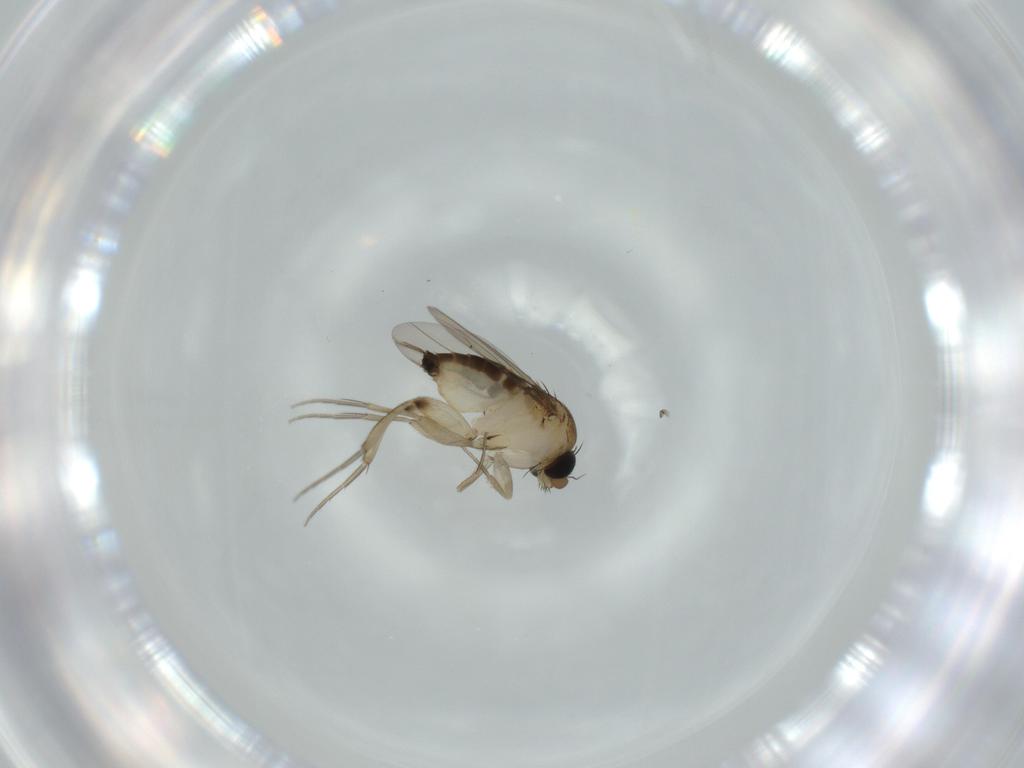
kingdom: Animalia
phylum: Arthropoda
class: Insecta
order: Diptera
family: Phoridae
